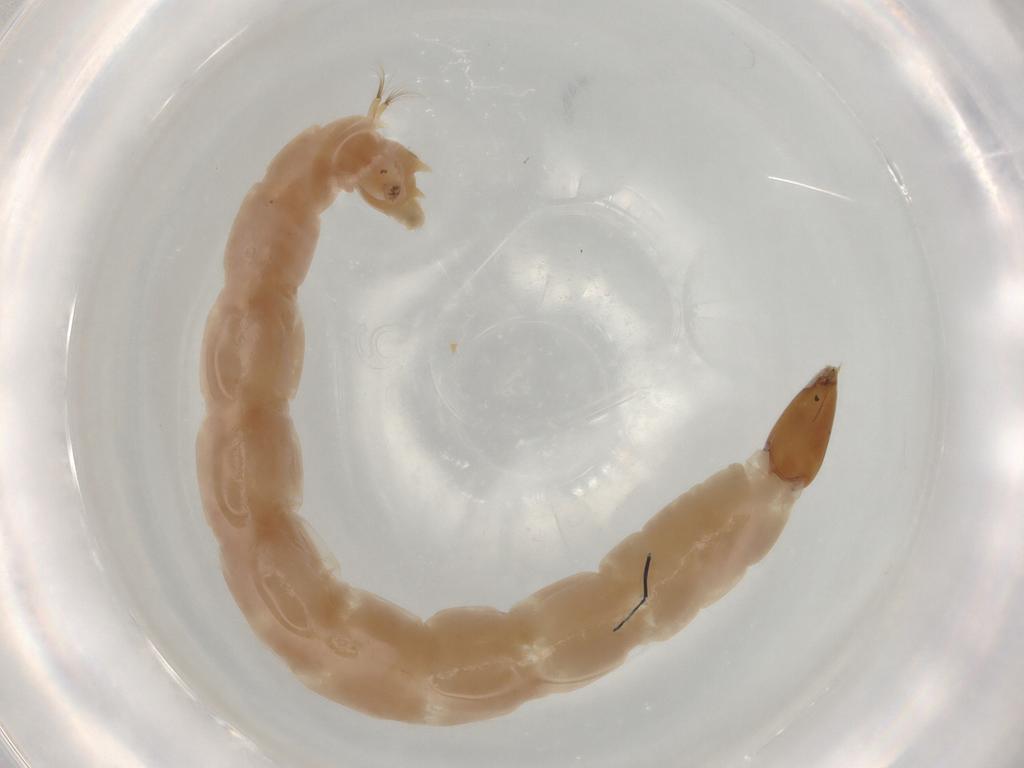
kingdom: Animalia
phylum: Arthropoda
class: Insecta
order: Diptera
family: Chironomidae
